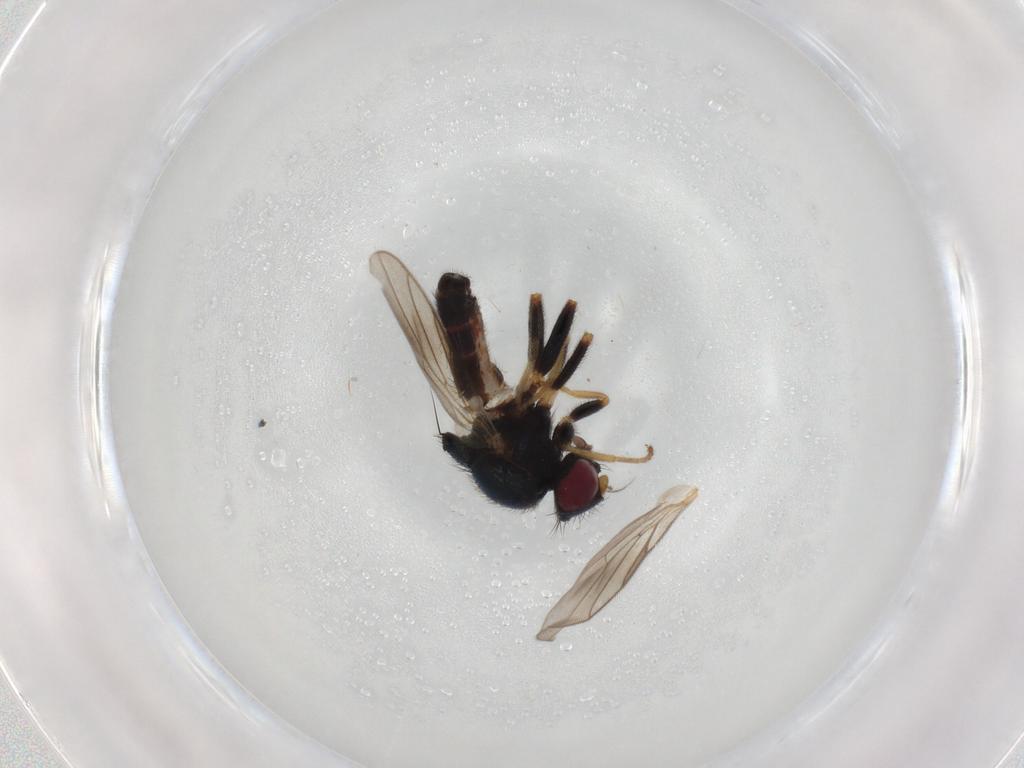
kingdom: Animalia
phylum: Arthropoda
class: Insecta
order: Diptera
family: Chloropidae
